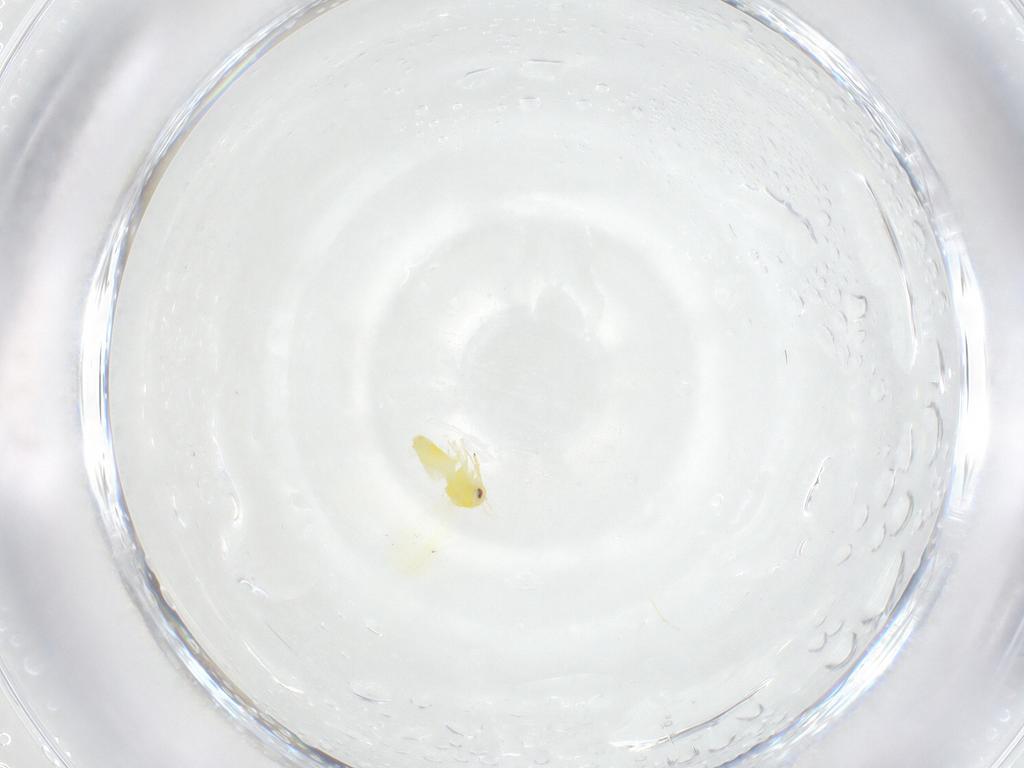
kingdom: Animalia
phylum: Arthropoda
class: Insecta
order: Hemiptera
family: Aleyrodidae
